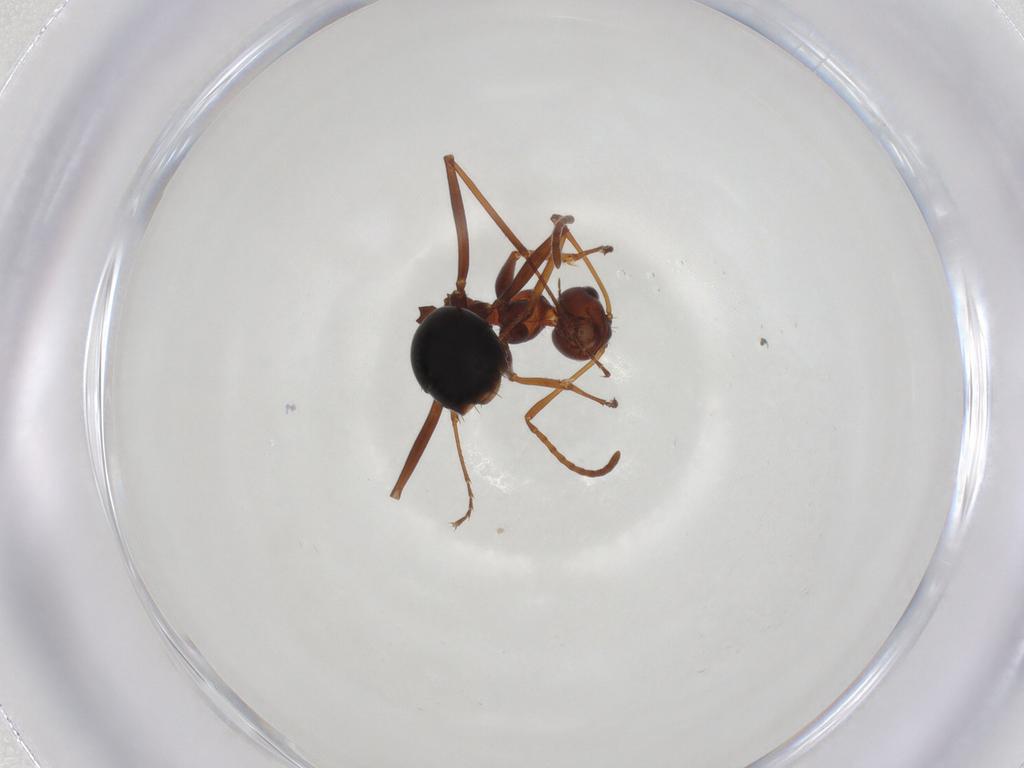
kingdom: Animalia
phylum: Arthropoda
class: Insecta
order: Hymenoptera
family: Formicidae
